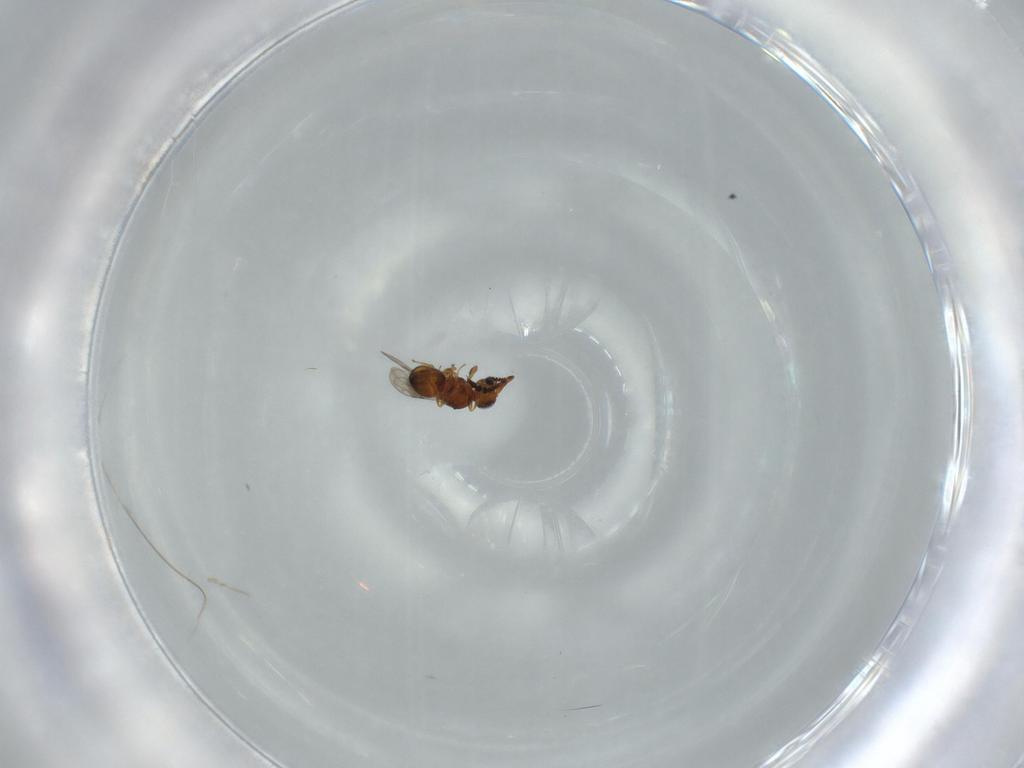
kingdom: Animalia
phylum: Arthropoda
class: Insecta
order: Hymenoptera
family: Ceraphronidae
